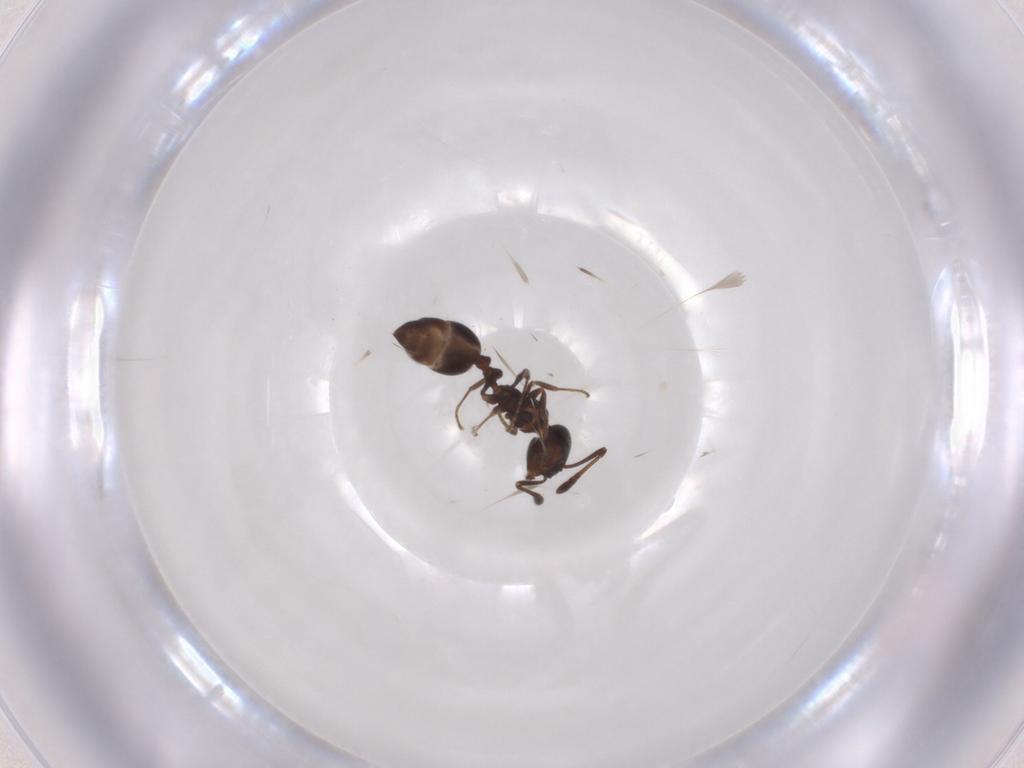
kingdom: Animalia
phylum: Arthropoda
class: Insecta
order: Hymenoptera
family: Formicidae
